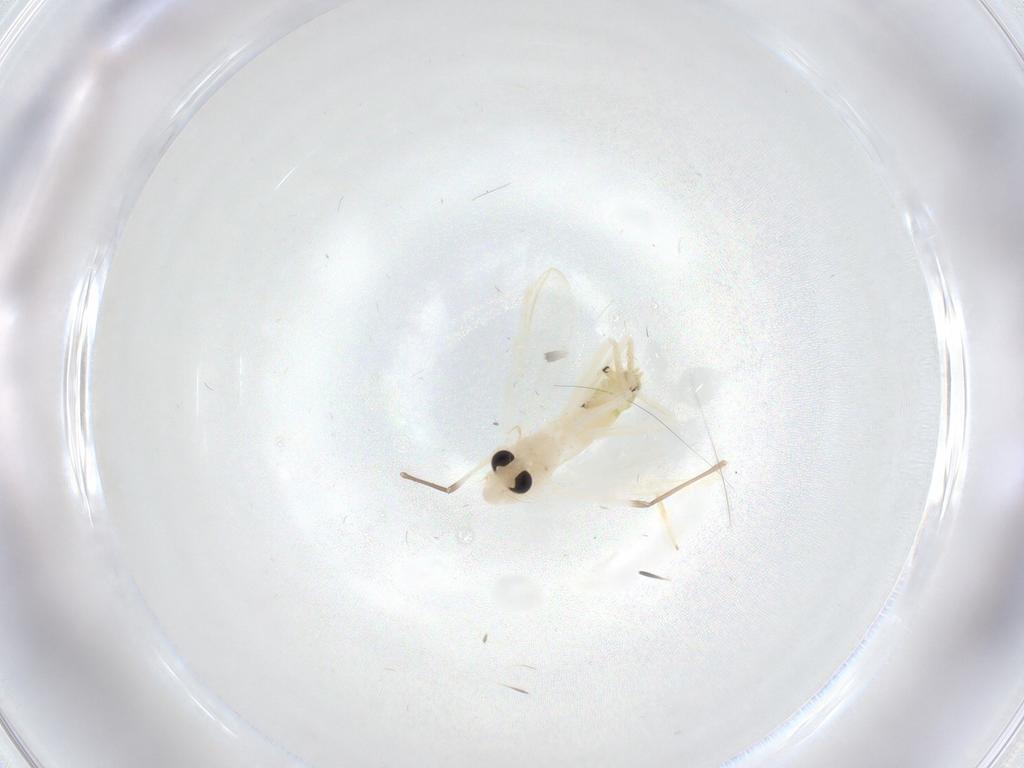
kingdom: Animalia
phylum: Arthropoda
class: Insecta
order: Diptera
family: Chironomidae
